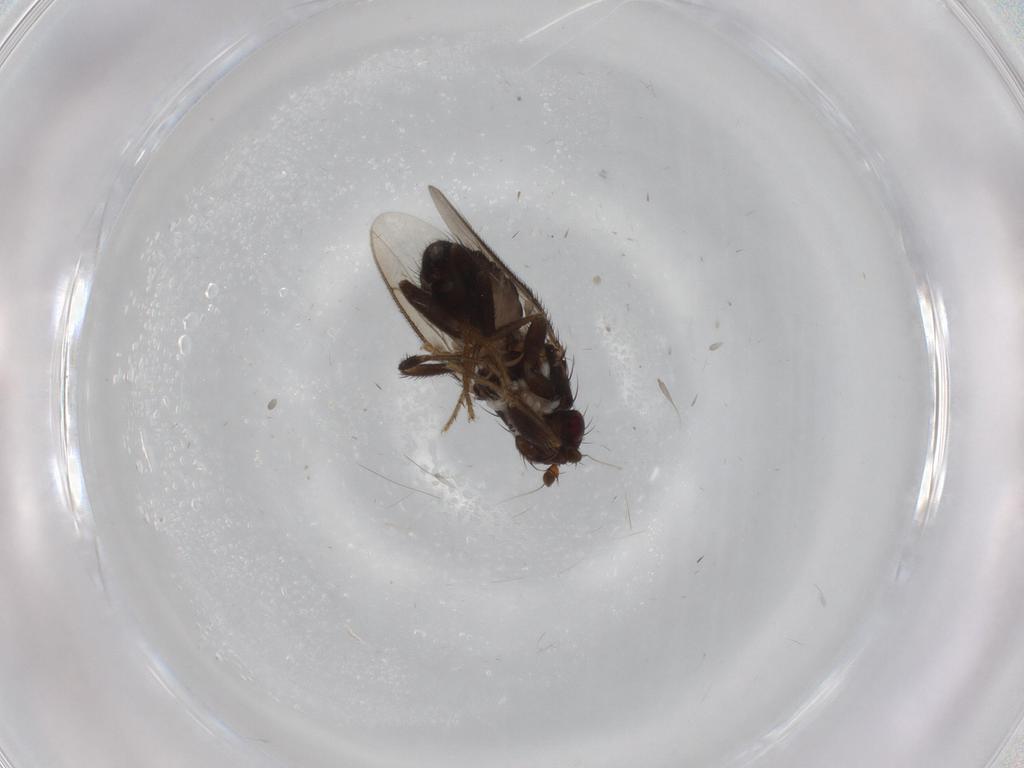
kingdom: Animalia
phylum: Arthropoda
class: Insecta
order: Diptera
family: Sphaeroceridae
